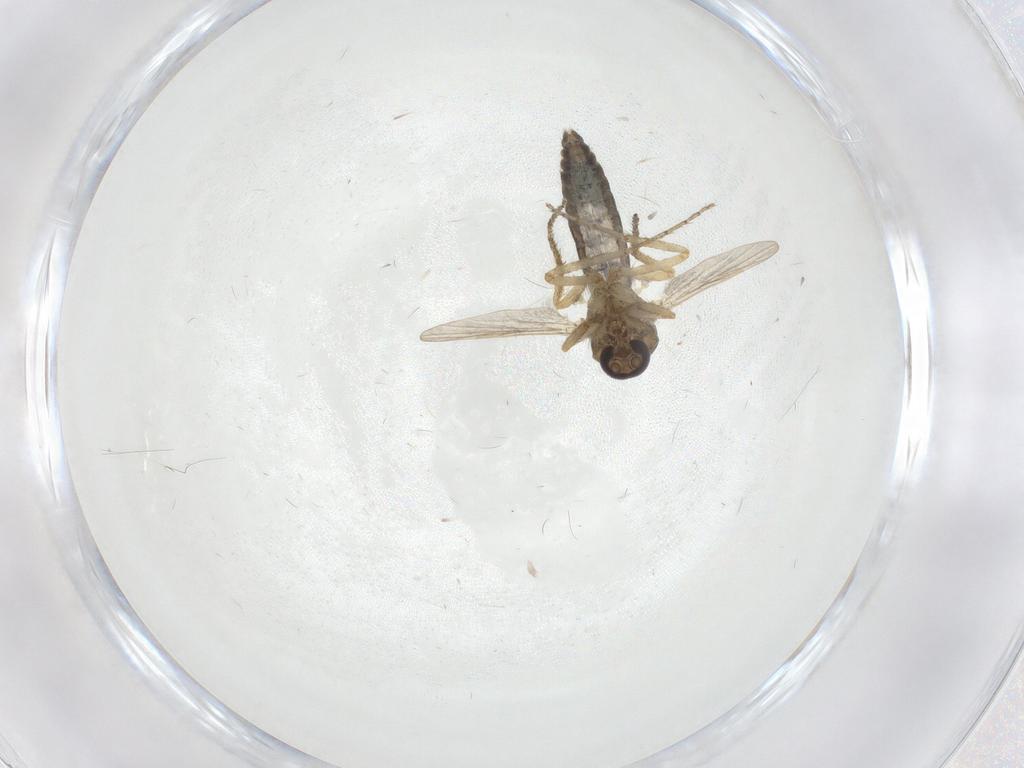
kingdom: Animalia
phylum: Arthropoda
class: Insecta
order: Diptera
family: Ceratopogonidae
